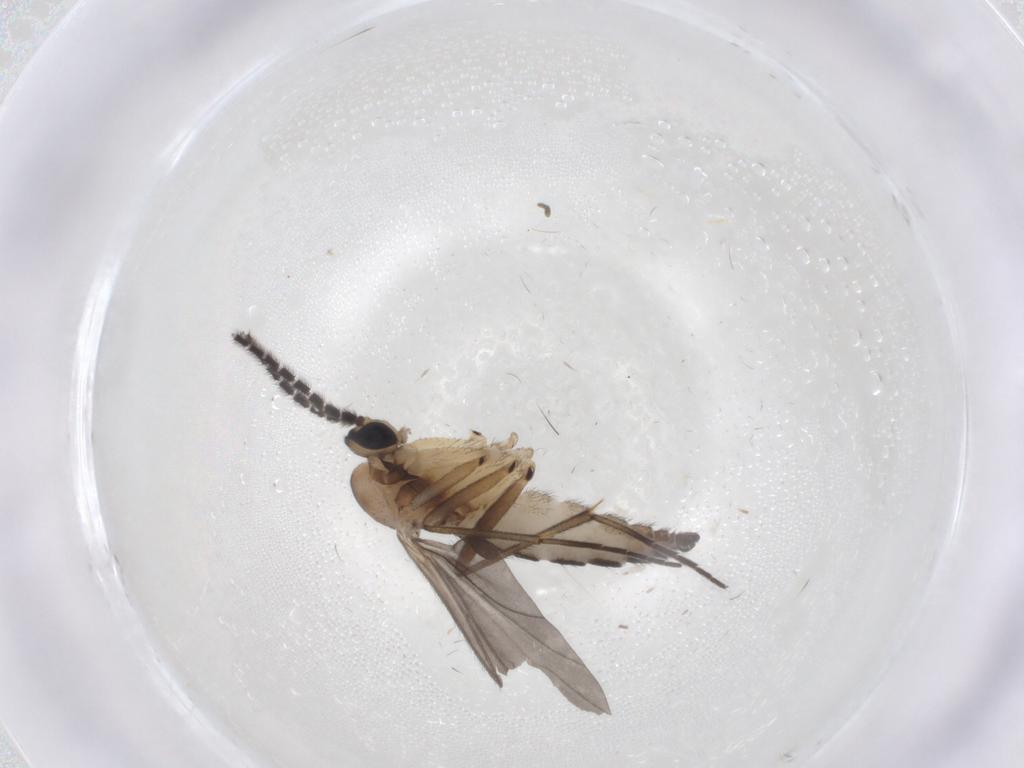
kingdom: Animalia
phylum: Arthropoda
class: Insecta
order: Diptera
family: Sciaridae
